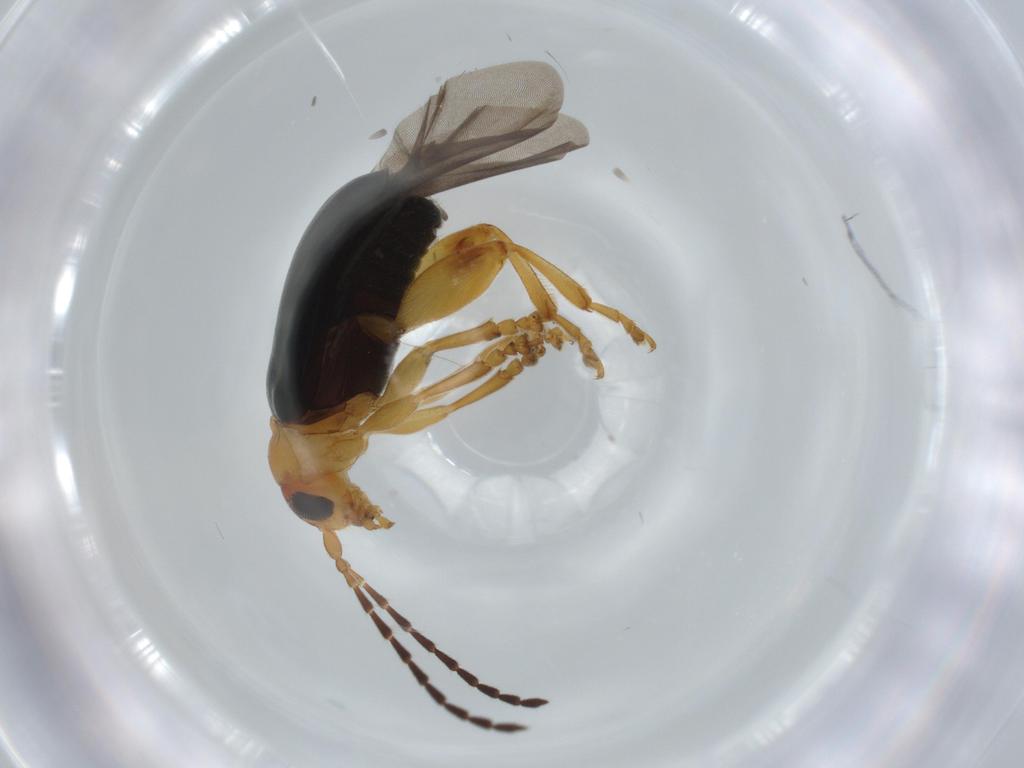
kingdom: Animalia
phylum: Arthropoda
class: Insecta
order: Coleoptera
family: Chrysomelidae
